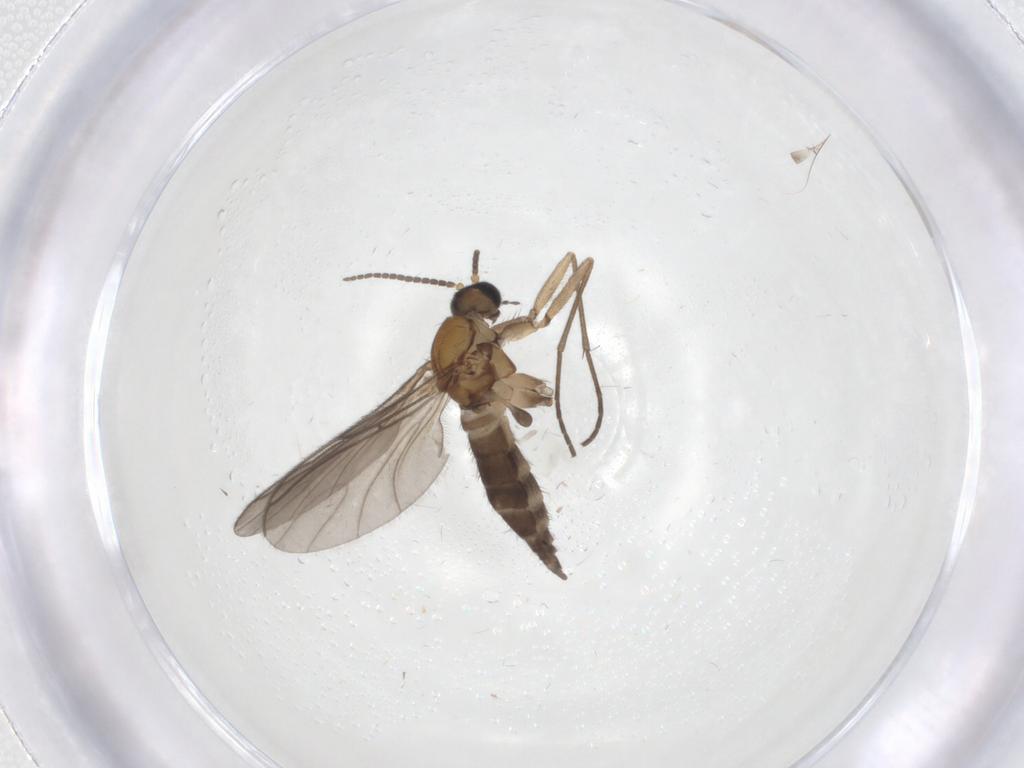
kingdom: Animalia
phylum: Arthropoda
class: Insecta
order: Diptera
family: Sciaridae
